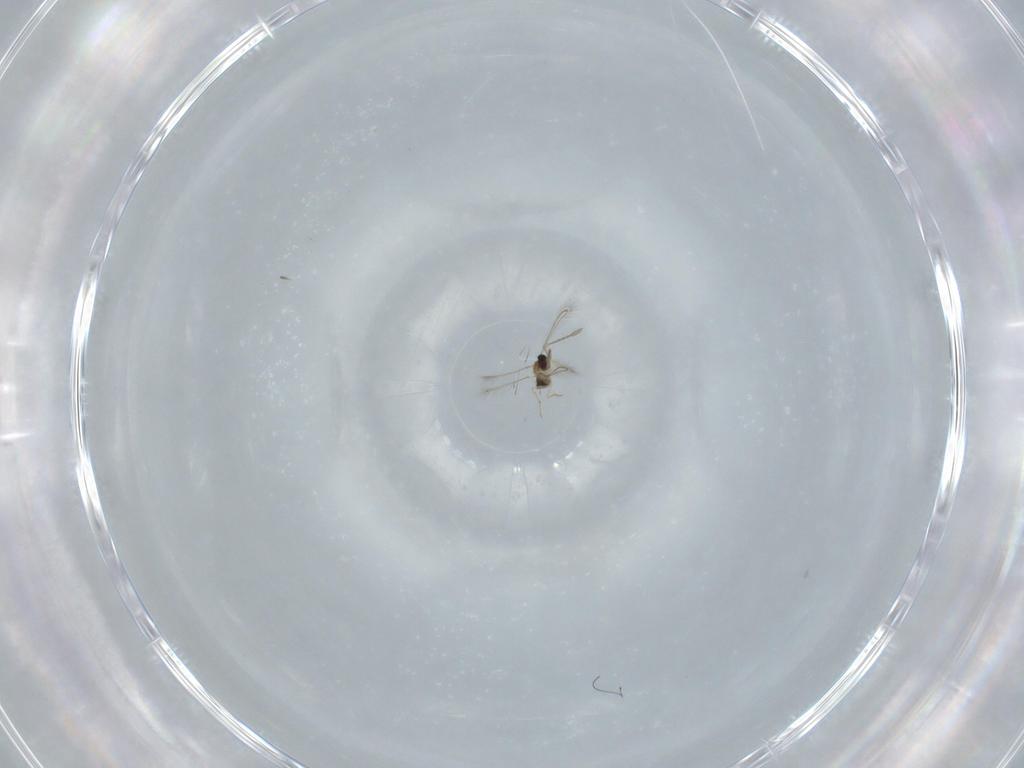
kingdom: Animalia
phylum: Arthropoda
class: Insecta
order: Hymenoptera
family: Mymaridae
